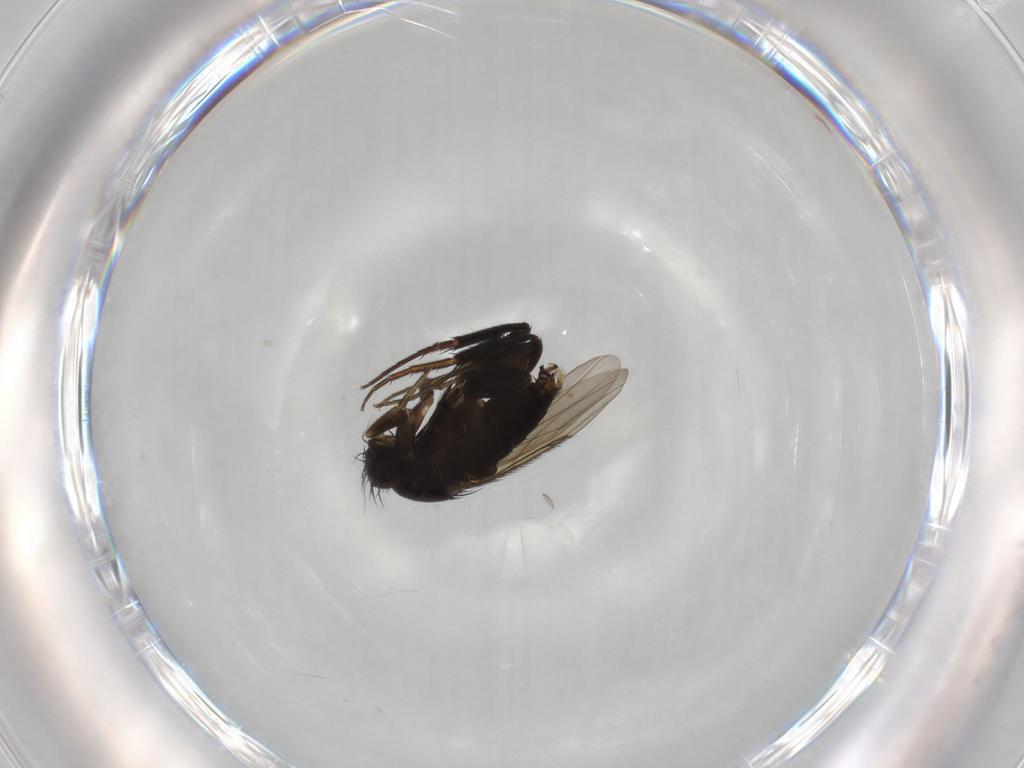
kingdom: Animalia
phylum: Arthropoda
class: Insecta
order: Diptera
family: Phoridae
